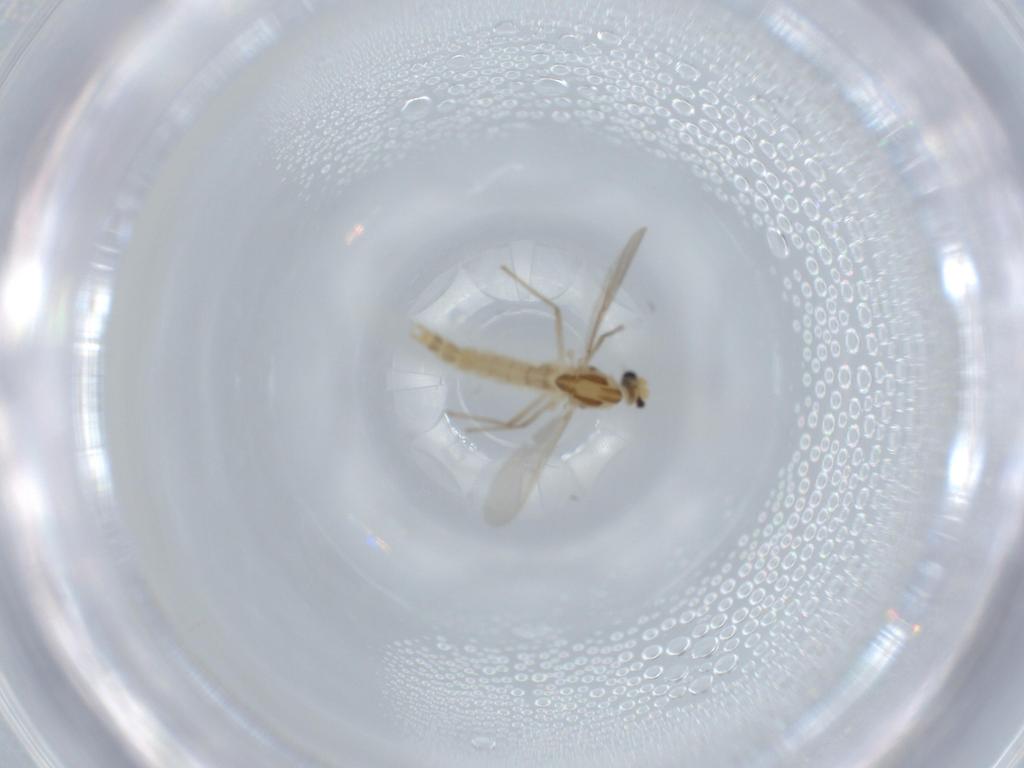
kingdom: Animalia
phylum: Arthropoda
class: Insecta
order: Diptera
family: Chironomidae
